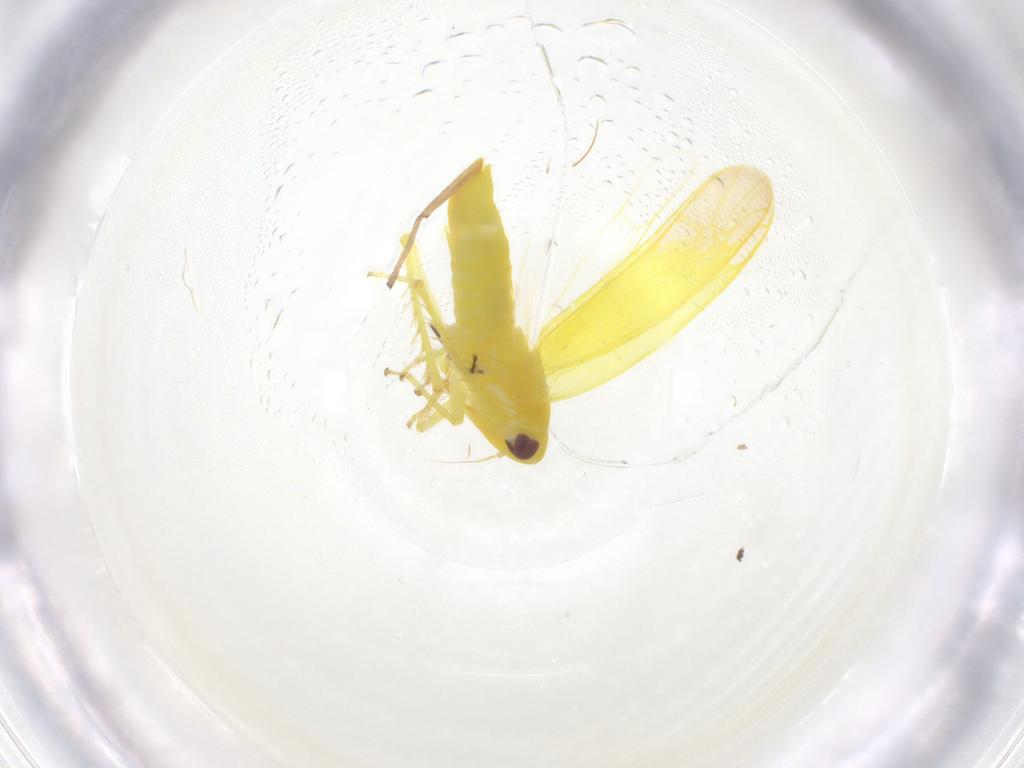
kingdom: Animalia
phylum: Arthropoda
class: Insecta
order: Hemiptera
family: Cicadellidae
